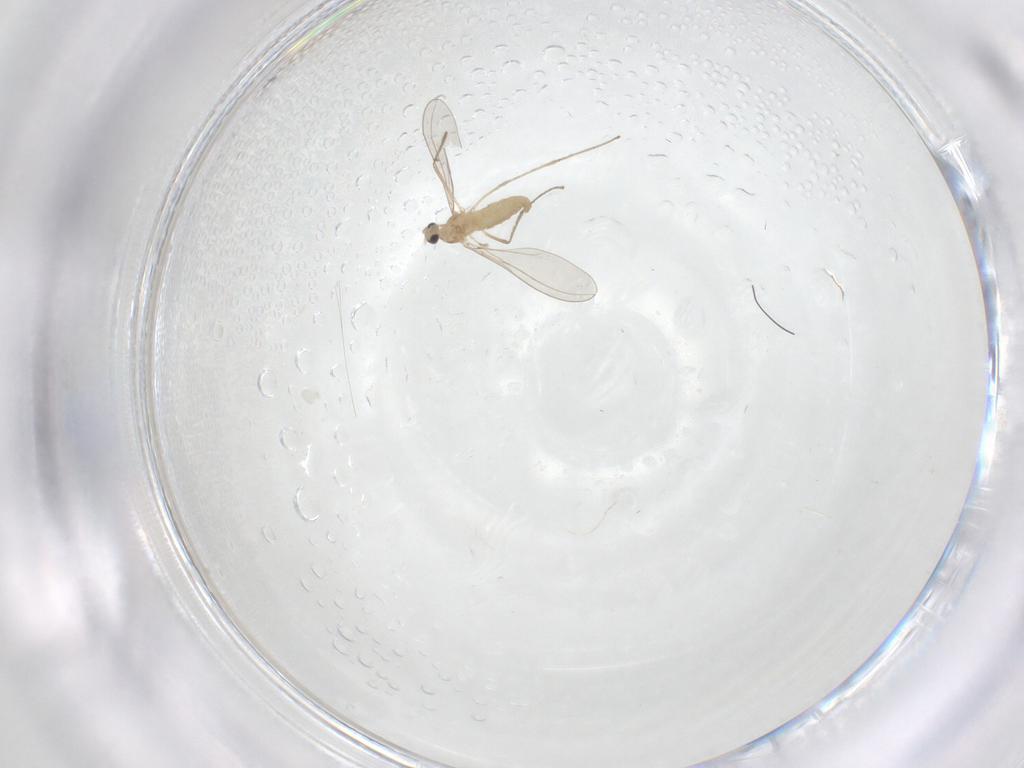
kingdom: Animalia
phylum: Arthropoda
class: Insecta
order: Diptera
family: Cecidomyiidae
